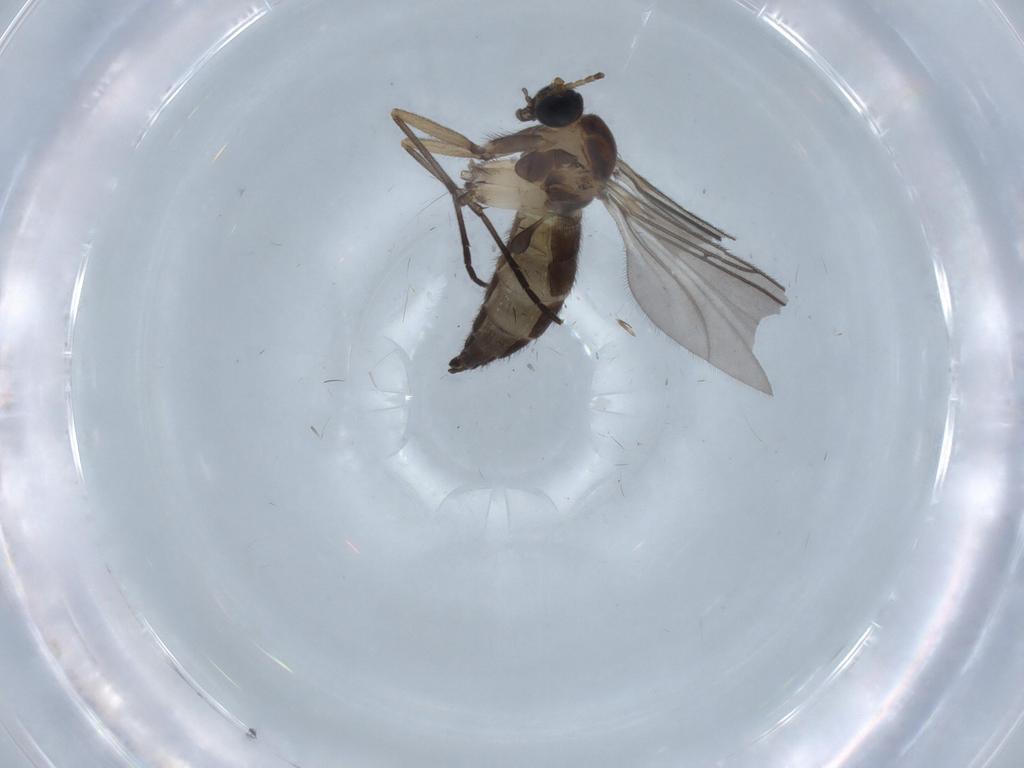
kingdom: Animalia
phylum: Arthropoda
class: Insecta
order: Diptera
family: Sciaridae
